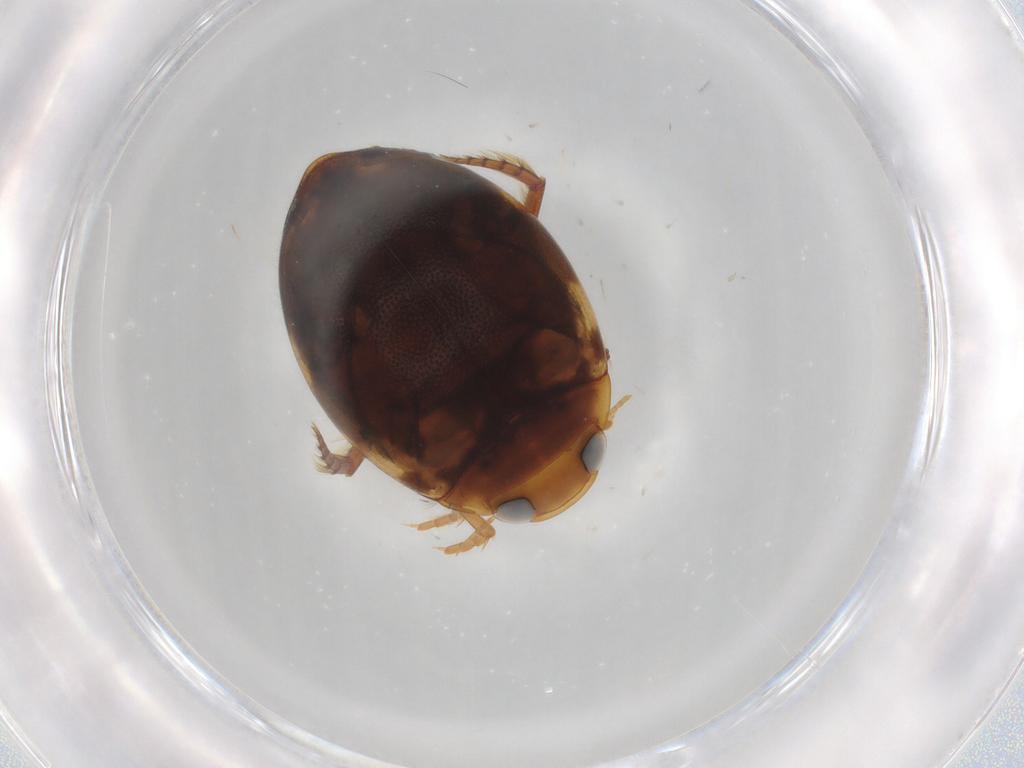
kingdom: Animalia
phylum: Arthropoda
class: Insecta
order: Coleoptera
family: Dytiscidae
